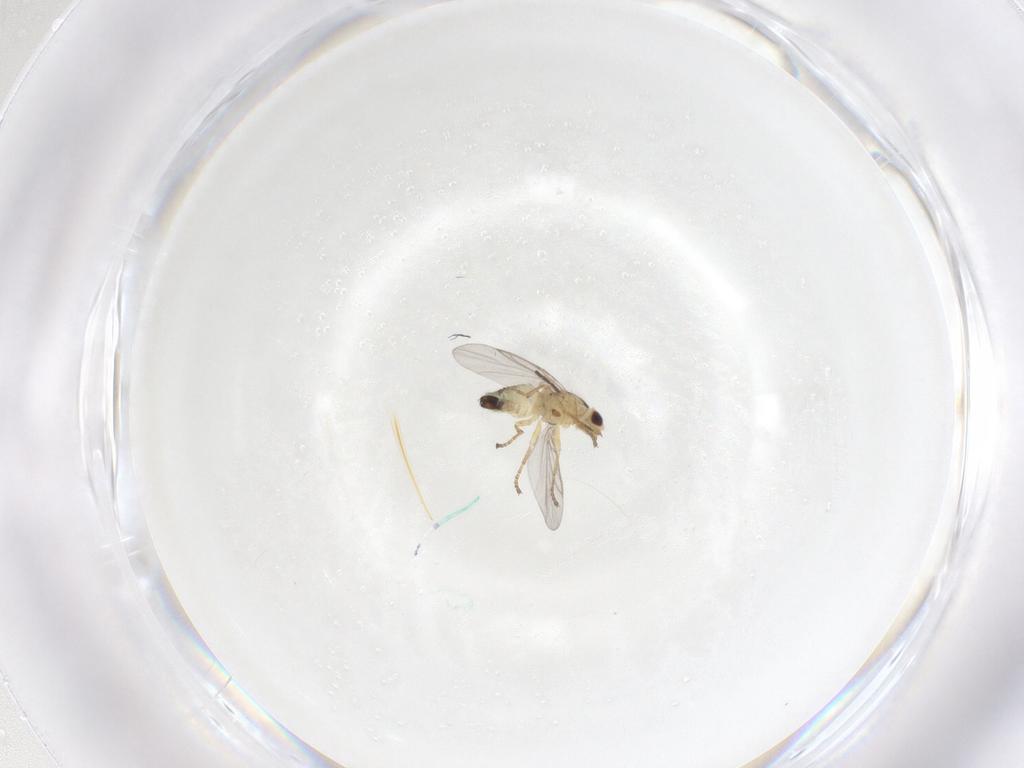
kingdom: Animalia
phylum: Arthropoda
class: Insecta
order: Diptera
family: Agromyzidae
